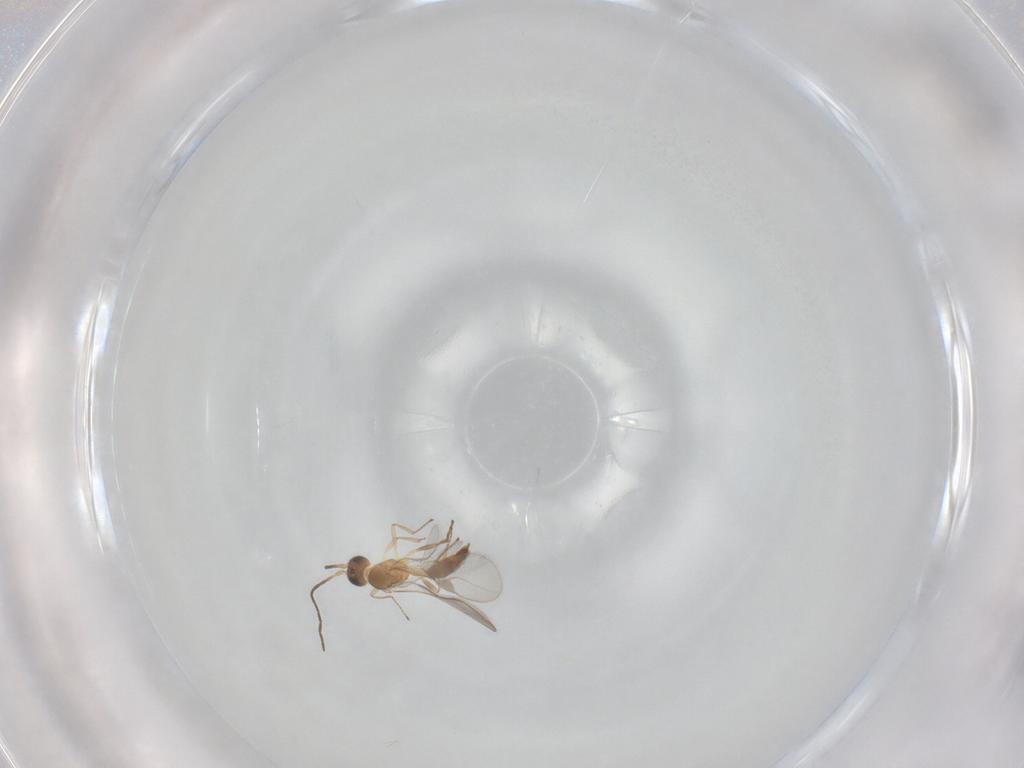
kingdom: Animalia
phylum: Arthropoda
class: Insecta
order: Hymenoptera
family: Braconidae
